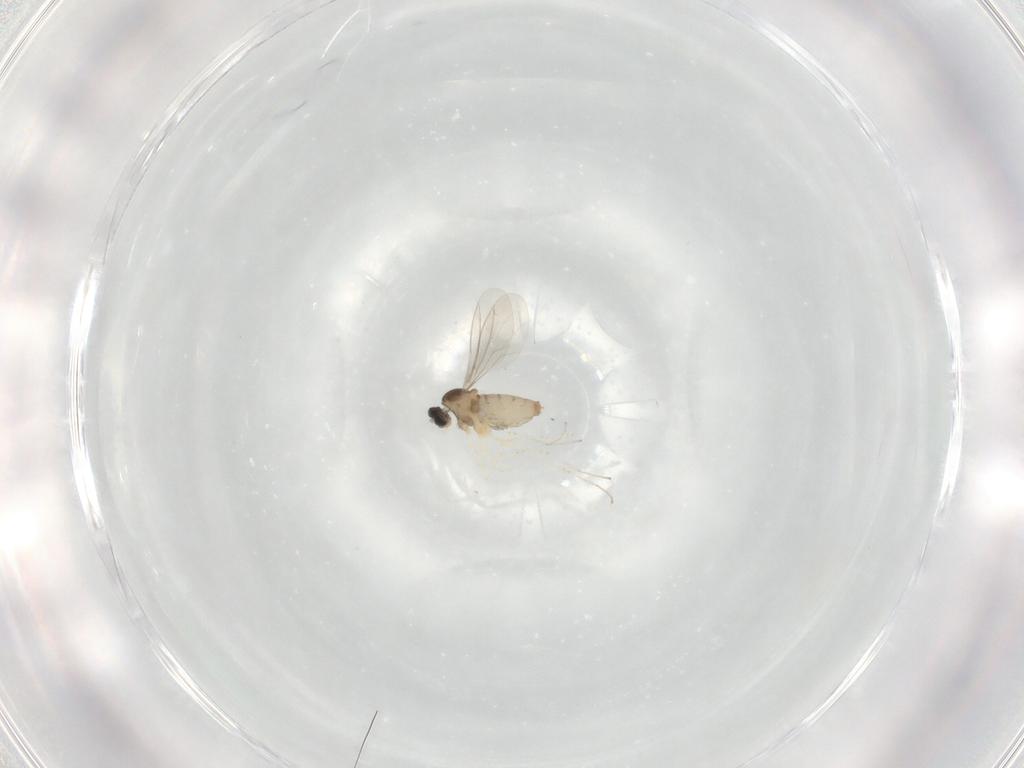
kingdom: Animalia
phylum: Arthropoda
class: Insecta
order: Diptera
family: Cecidomyiidae
